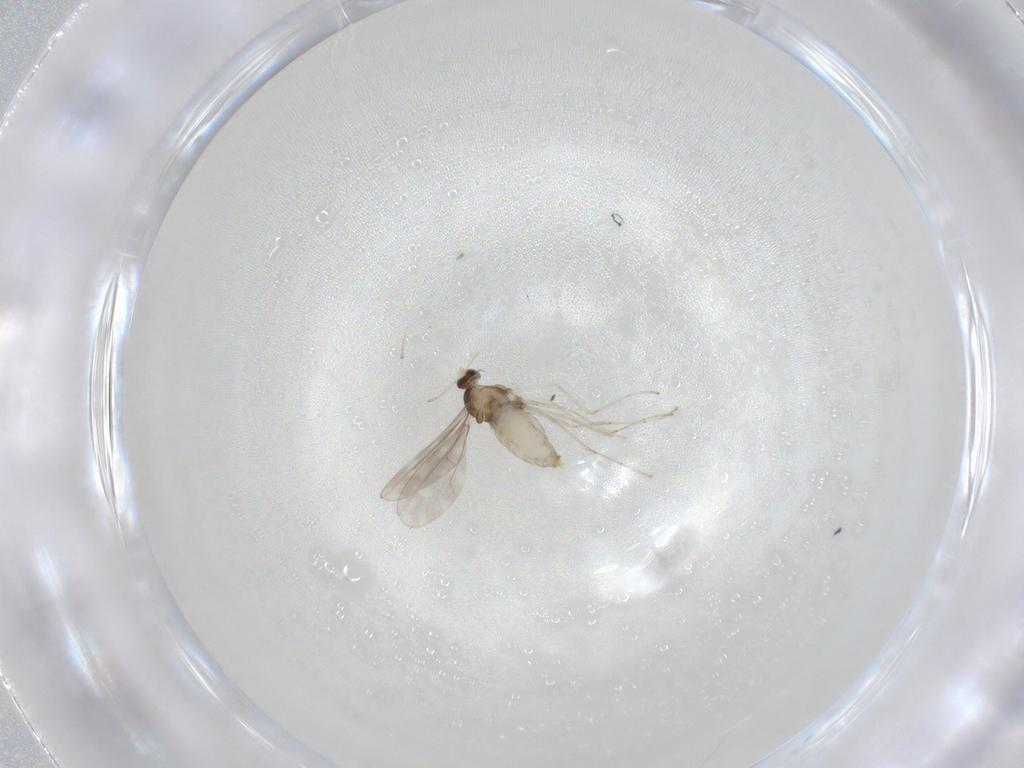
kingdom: Animalia
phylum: Arthropoda
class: Insecta
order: Diptera
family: Cecidomyiidae
